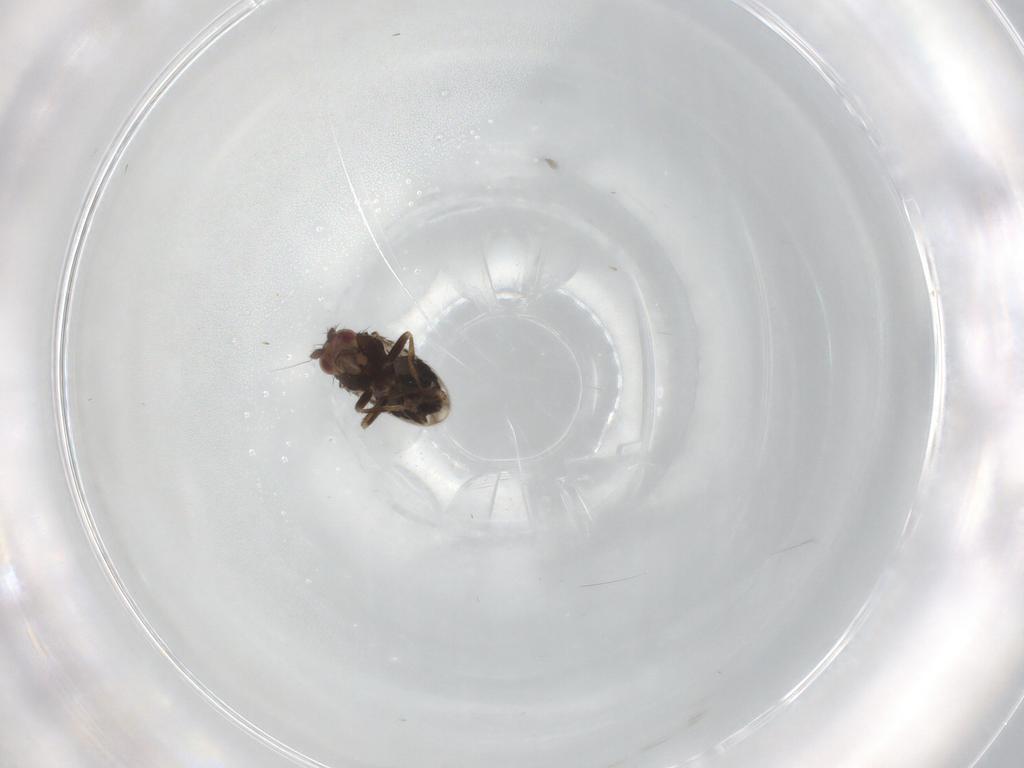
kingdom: Animalia
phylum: Arthropoda
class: Insecta
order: Diptera
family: Sphaeroceridae
